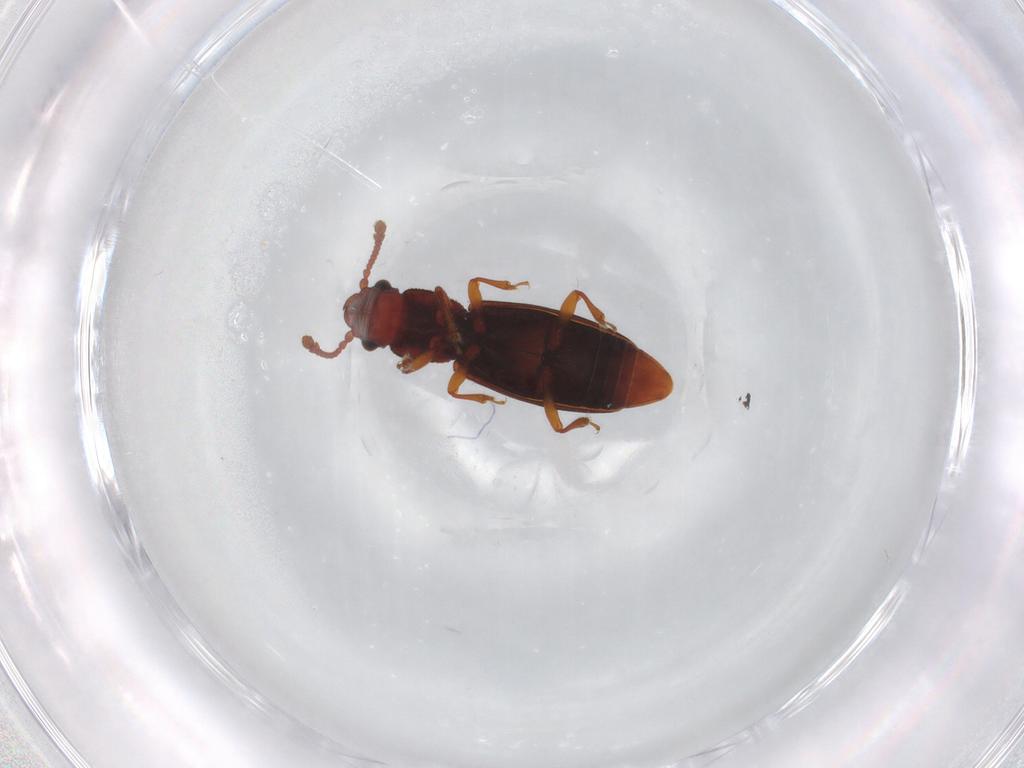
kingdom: Animalia
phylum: Arthropoda
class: Insecta
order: Coleoptera
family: Monotomidae
